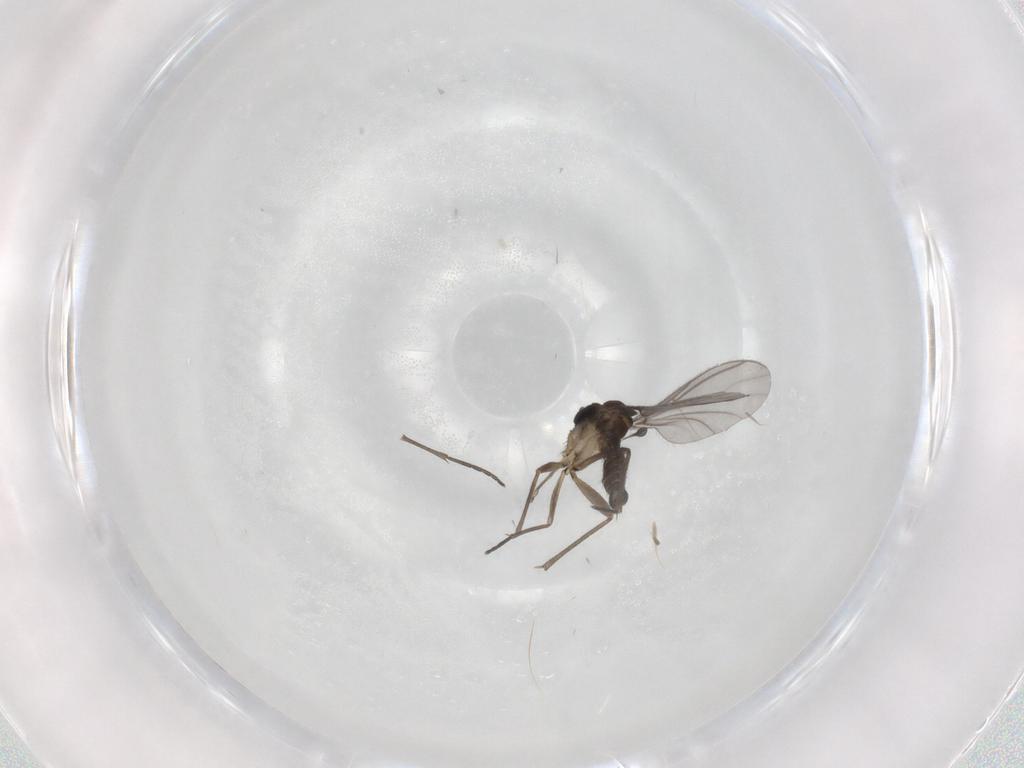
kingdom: Animalia
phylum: Arthropoda
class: Insecta
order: Diptera
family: Sciaridae
